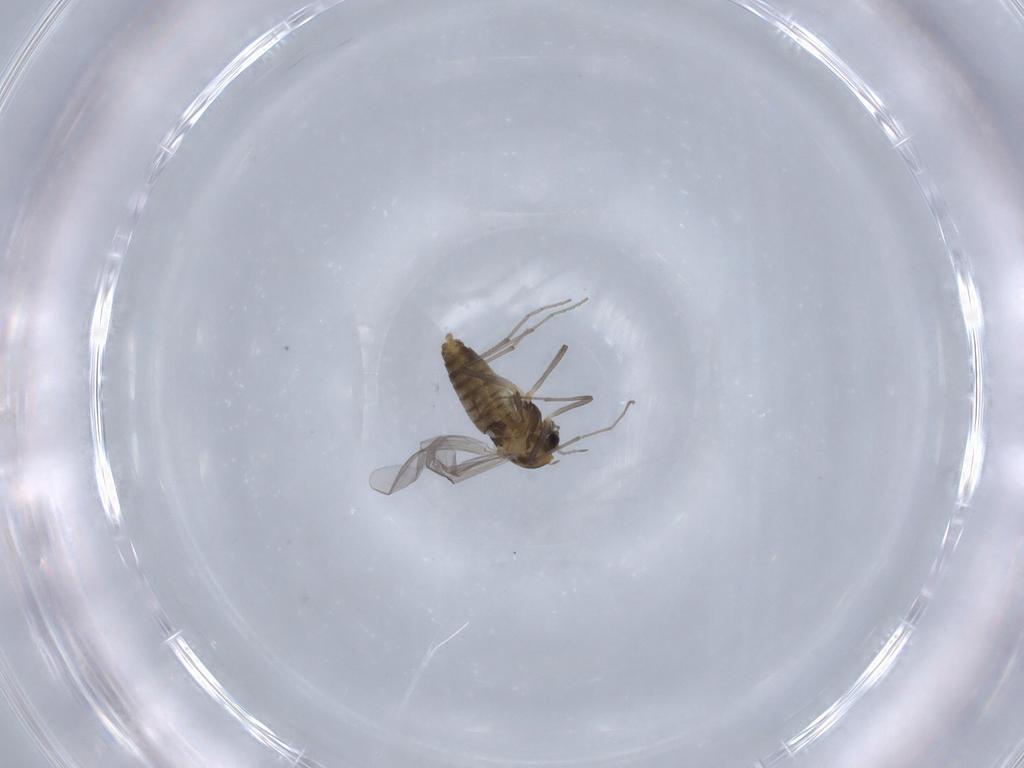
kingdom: Animalia
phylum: Arthropoda
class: Insecta
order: Diptera
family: Chironomidae
